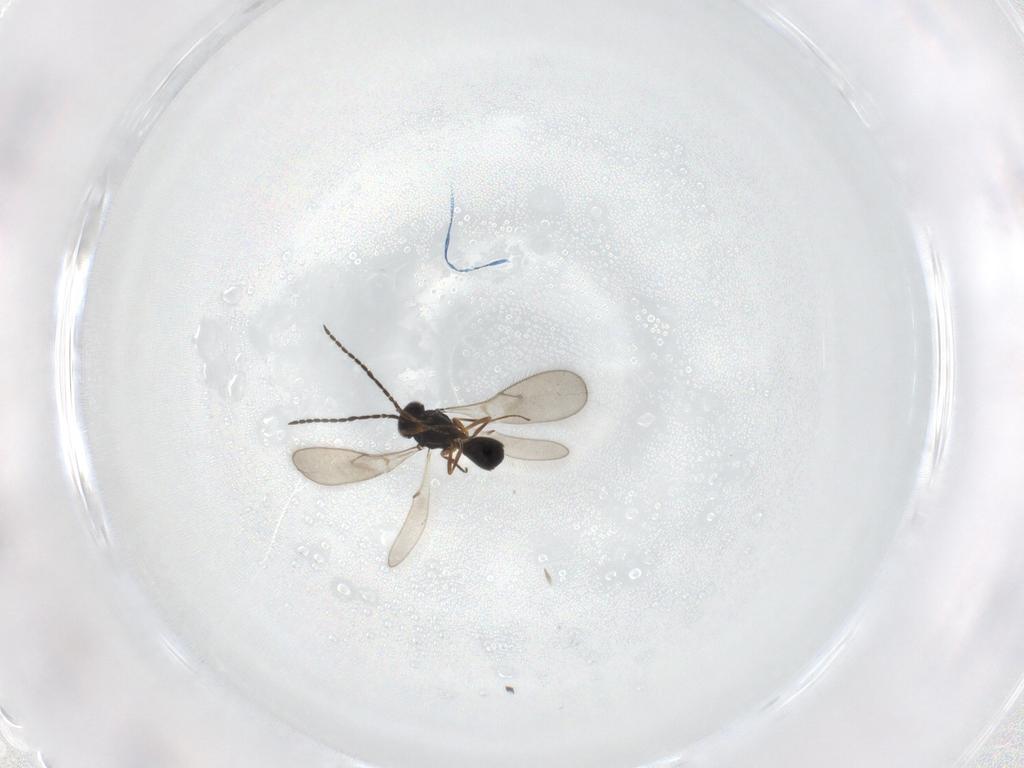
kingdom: Animalia
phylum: Arthropoda
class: Insecta
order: Hymenoptera
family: Scelionidae
